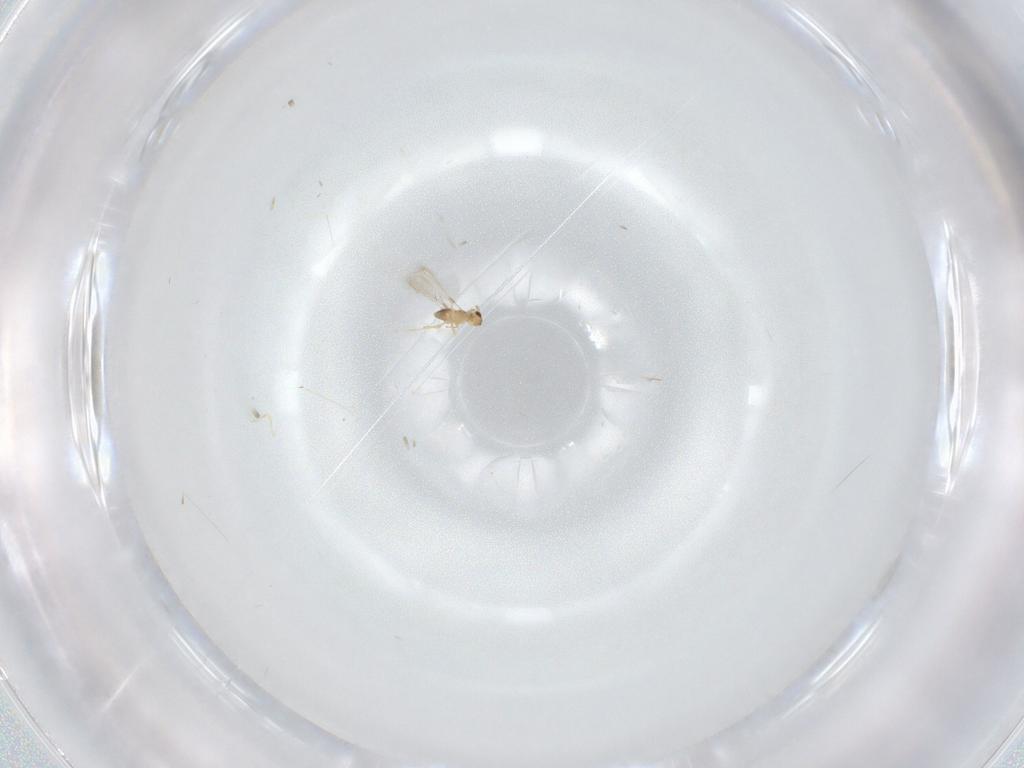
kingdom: Animalia
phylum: Arthropoda
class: Insecta
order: Hymenoptera
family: Mymaridae
